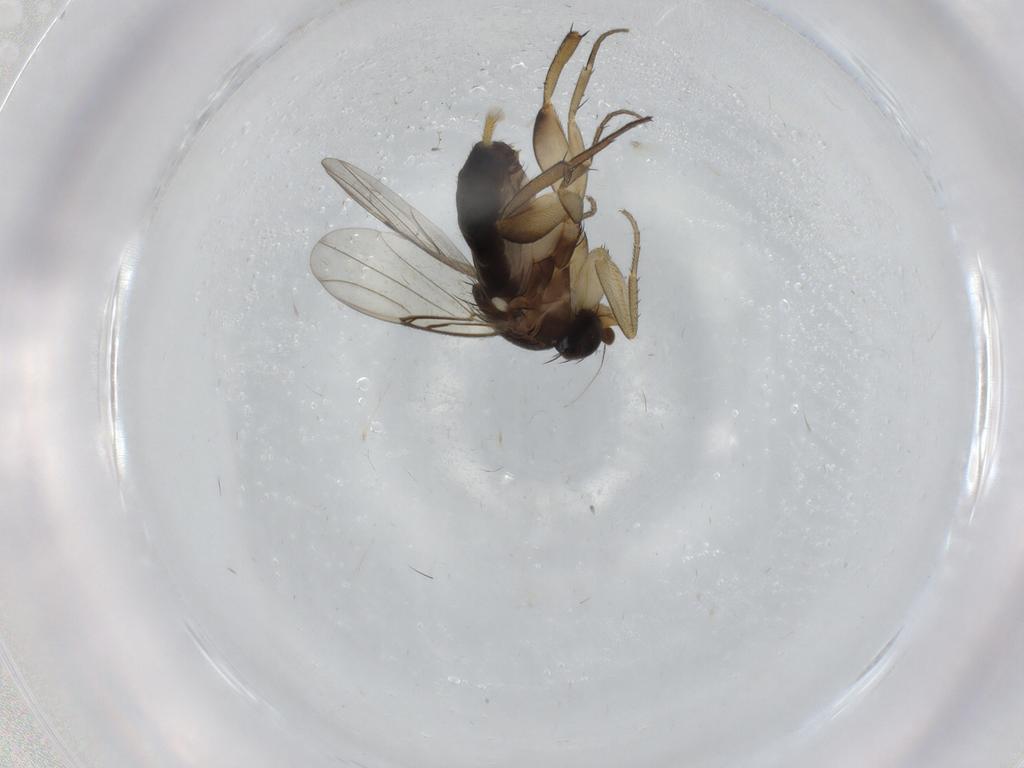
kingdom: Animalia
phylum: Arthropoda
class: Insecta
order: Diptera
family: Phoridae
